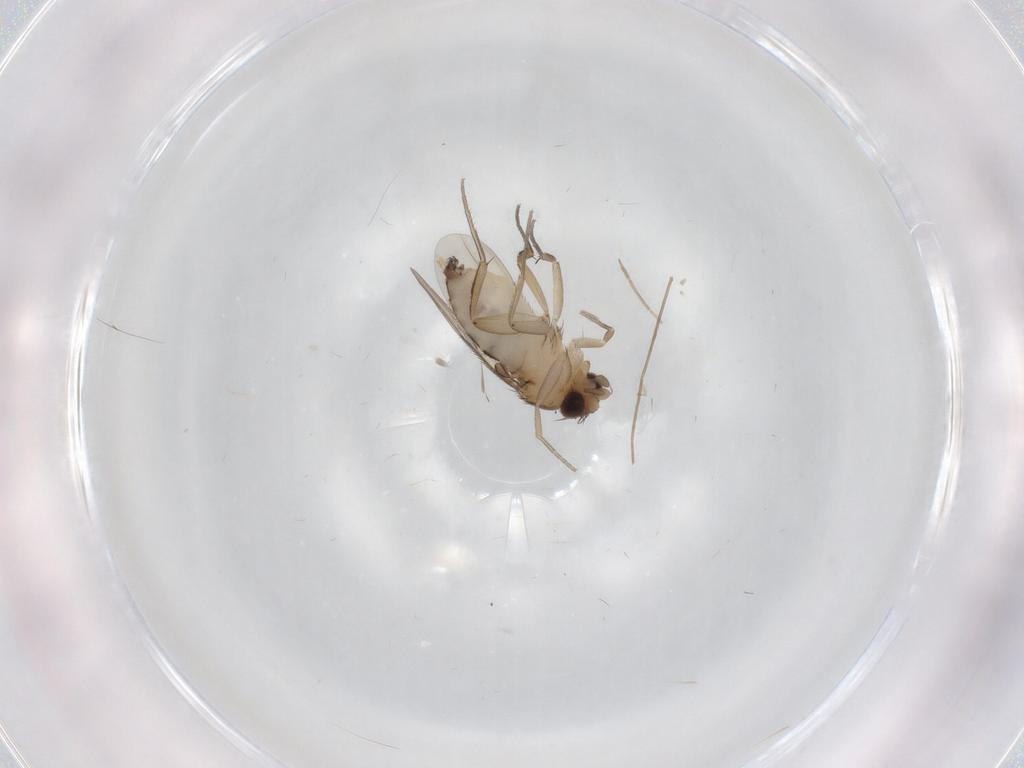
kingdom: Animalia
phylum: Arthropoda
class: Insecta
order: Diptera
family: Phoridae
